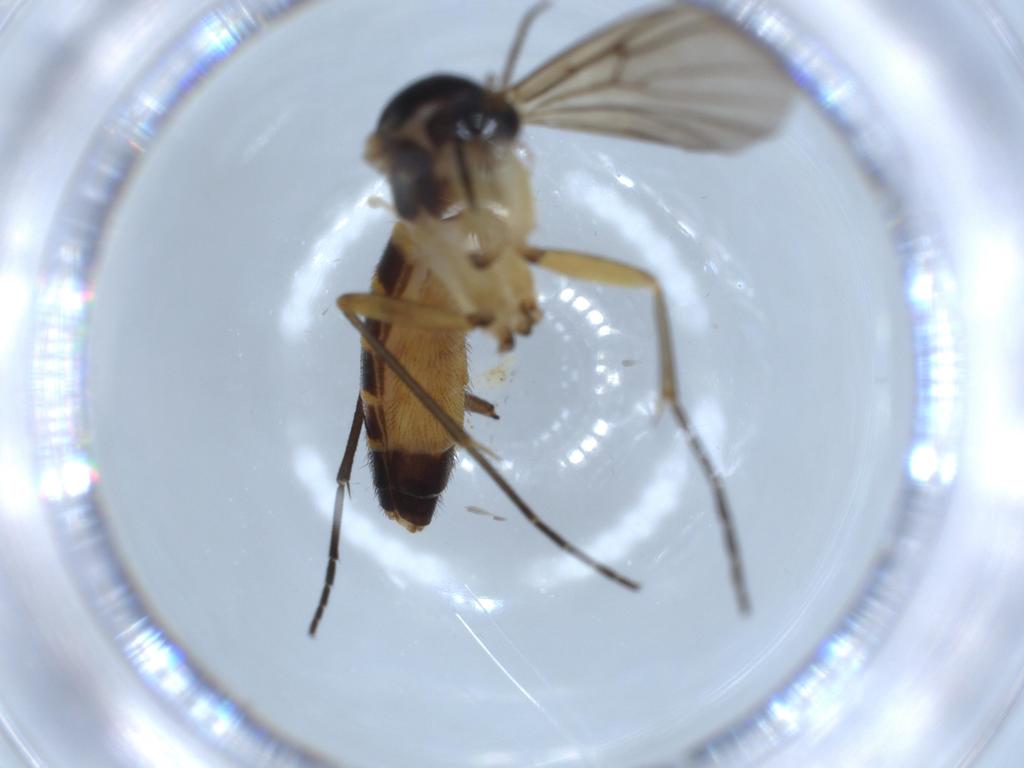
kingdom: Animalia
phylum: Arthropoda
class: Insecta
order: Diptera
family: Mycetophilidae
